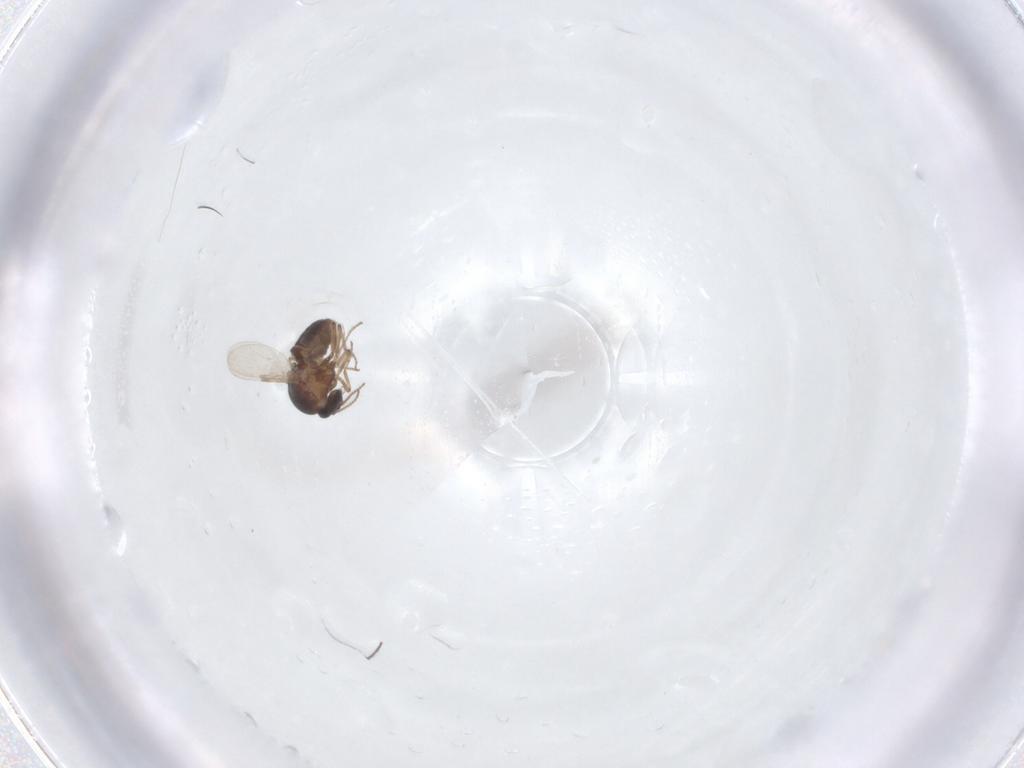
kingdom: Animalia
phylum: Arthropoda
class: Insecta
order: Diptera
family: Ceratopogonidae
